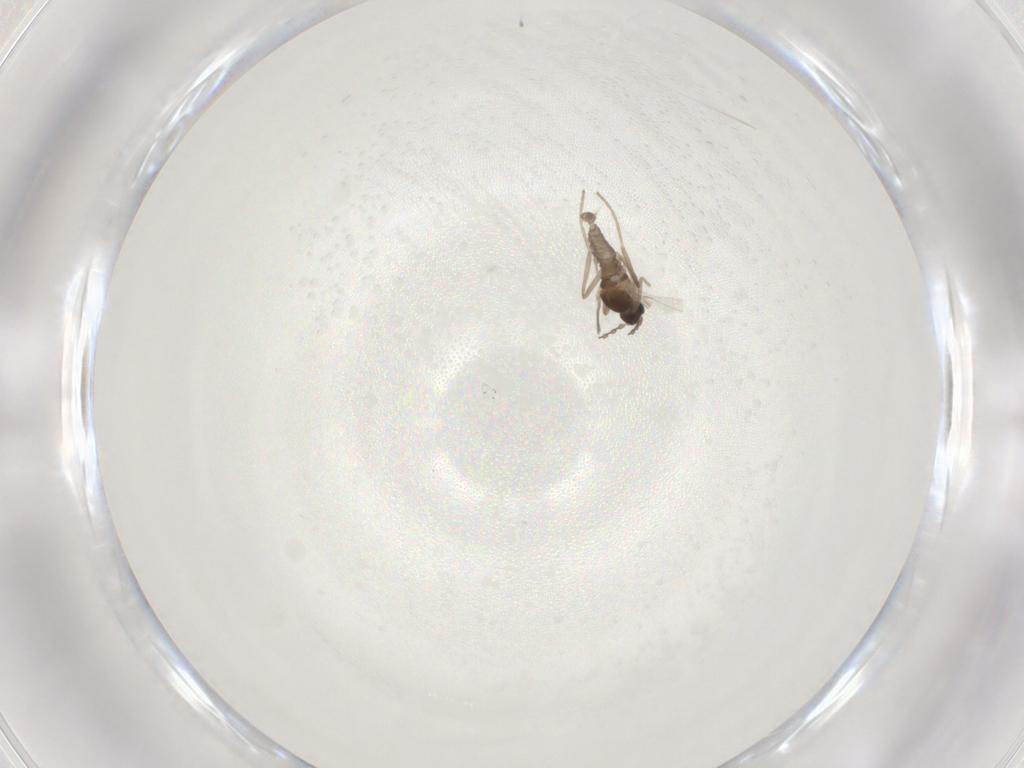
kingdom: Animalia
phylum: Arthropoda
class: Insecta
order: Diptera
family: Cecidomyiidae
